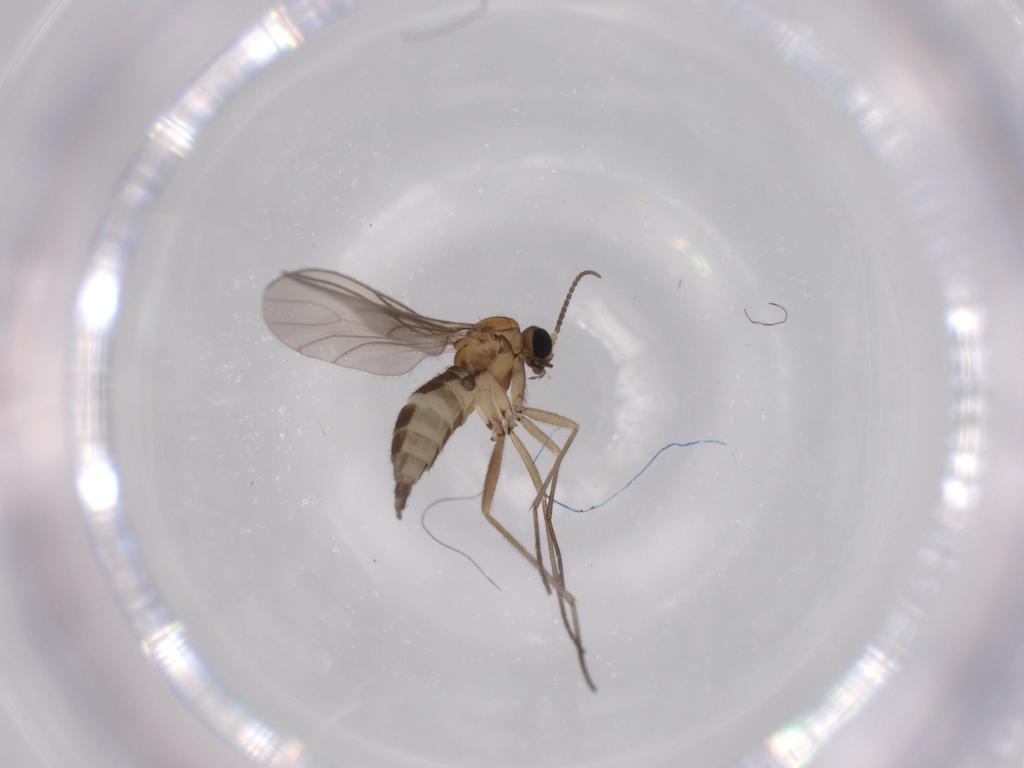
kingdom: Animalia
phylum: Arthropoda
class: Insecta
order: Diptera
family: Sciaridae
